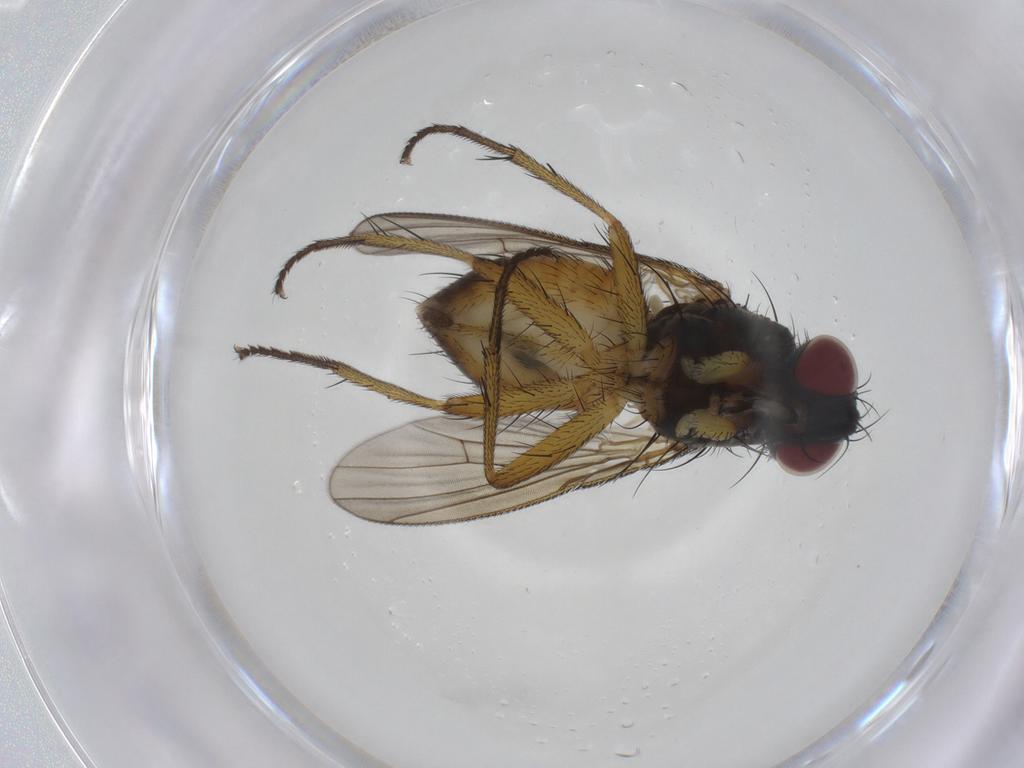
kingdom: Animalia
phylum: Arthropoda
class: Insecta
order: Diptera
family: Muscidae
